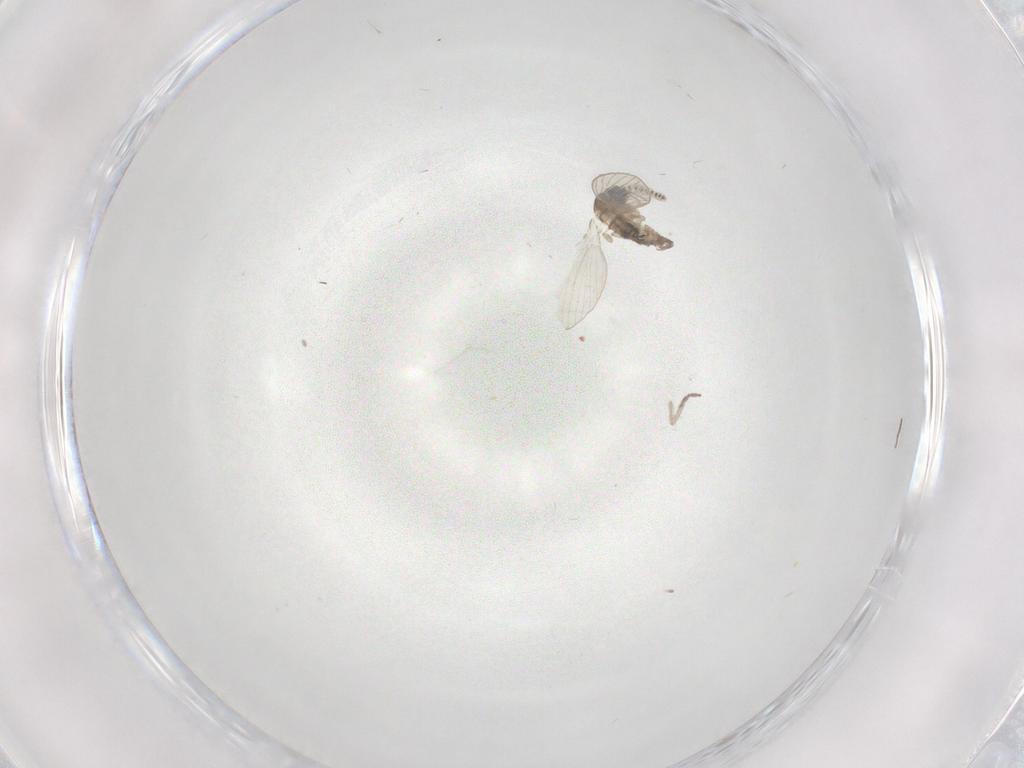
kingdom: Animalia
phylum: Arthropoda
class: Insecta
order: Diptera
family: Psychodidae
